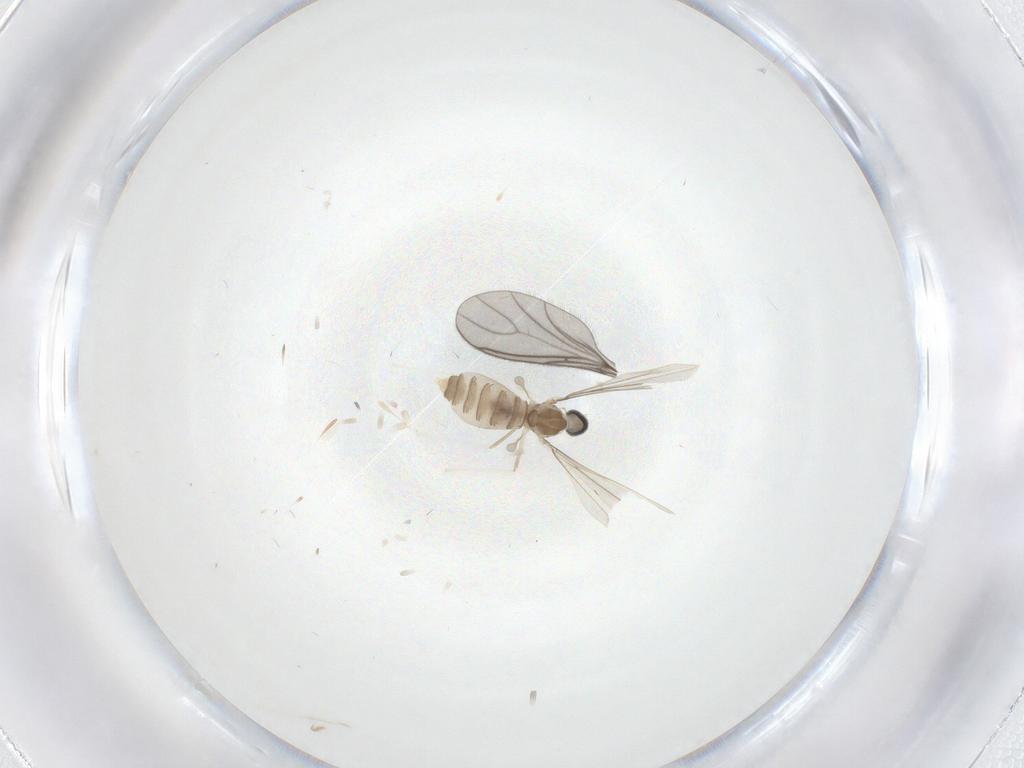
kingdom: Animalia
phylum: Arthropoda
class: Insecta
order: Diptera
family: Cecidomyiidae
